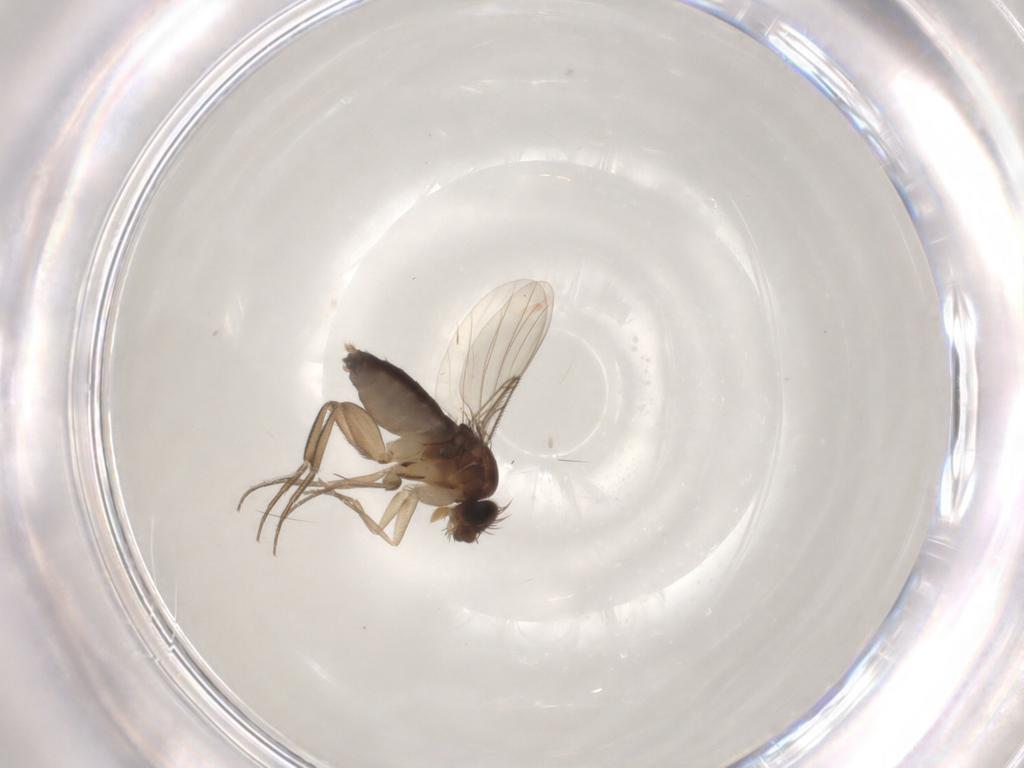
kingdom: Animalia
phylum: Arthropoda
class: Insecta
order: Diptera
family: Phoridae
